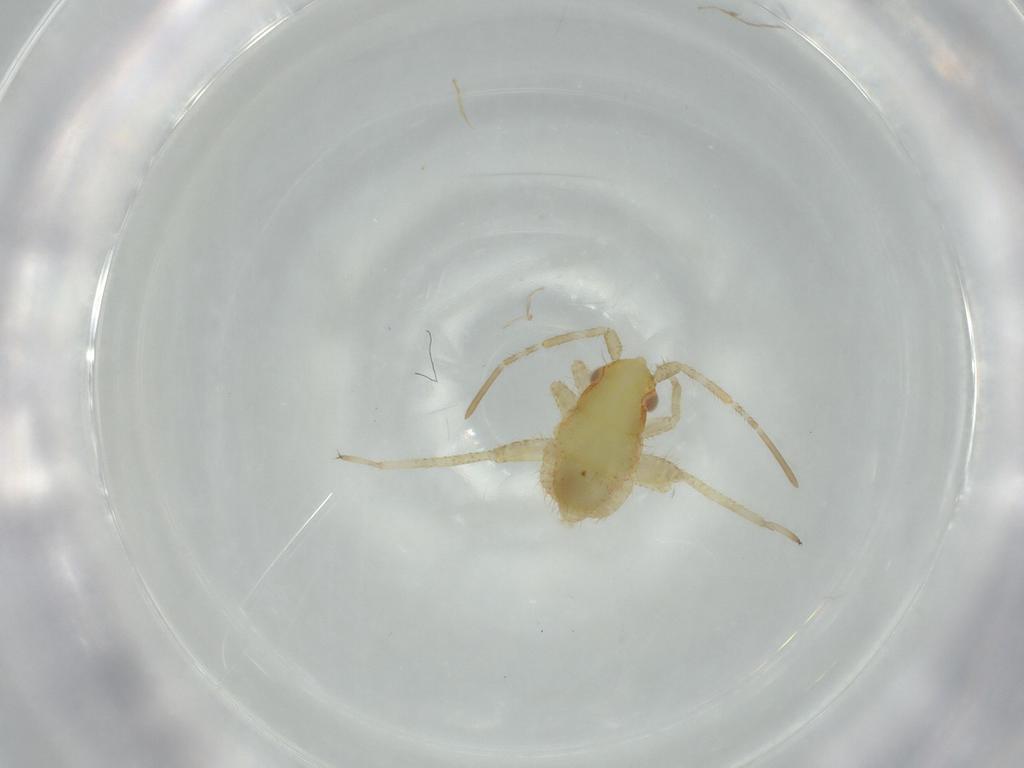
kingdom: Animalia
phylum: Arthropoda
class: Insecta
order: Hemiptera
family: Miridae
